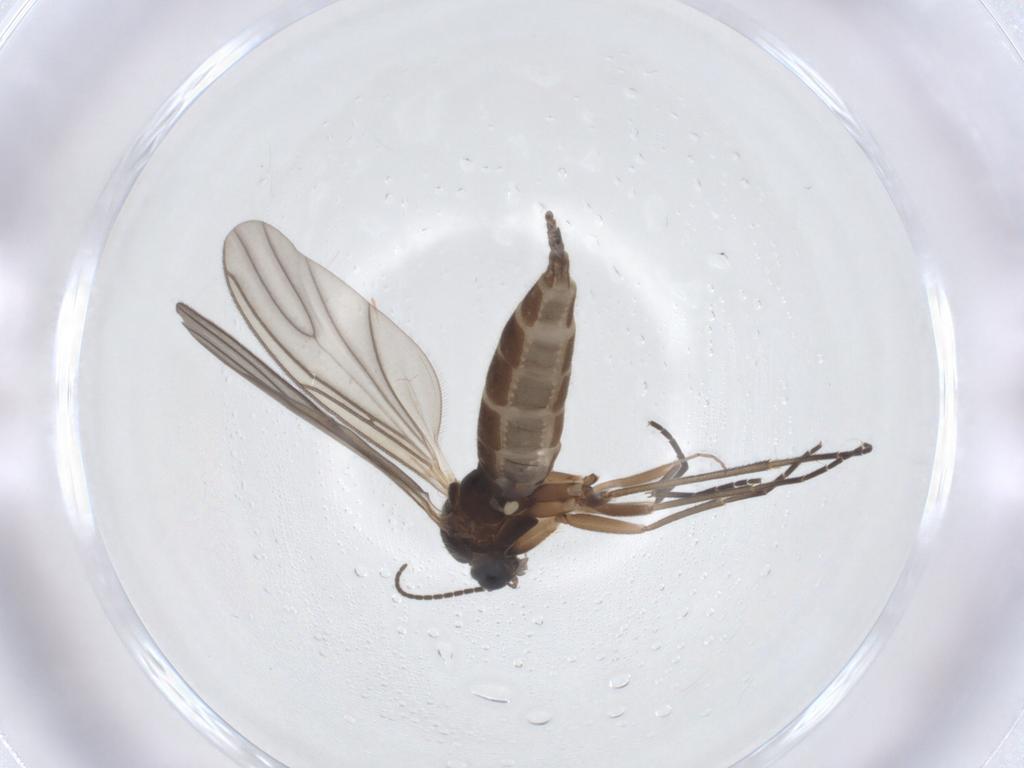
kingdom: Animalia
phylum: Arthropoda
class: Insecta
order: Diptera
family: Sciaridae
